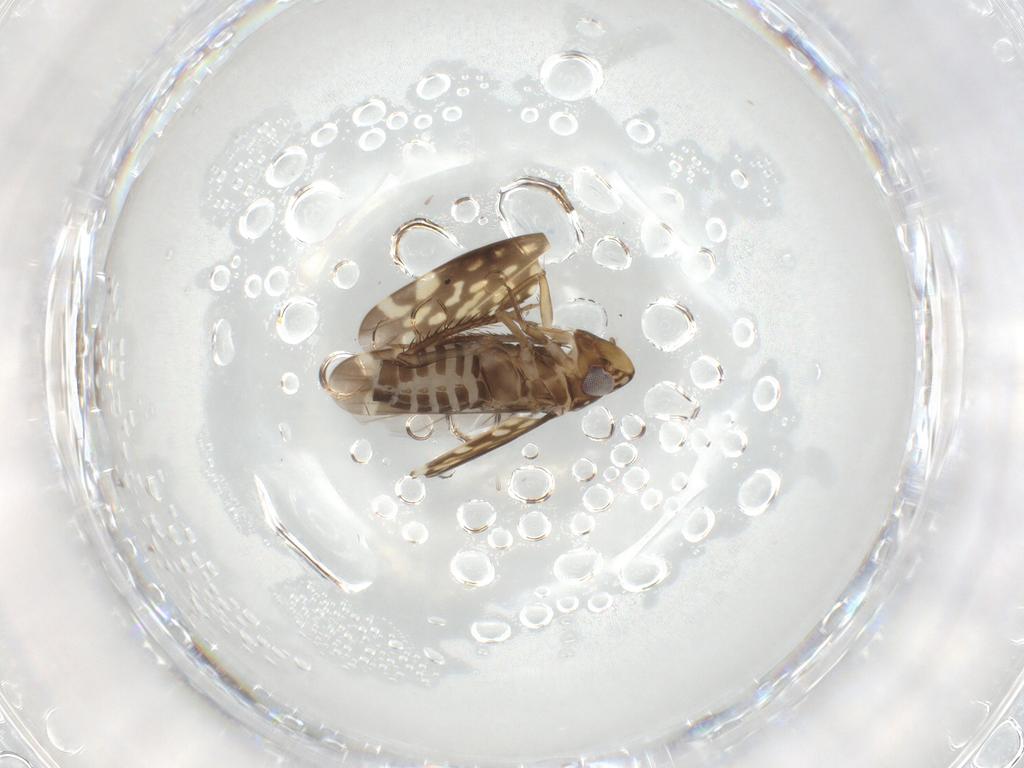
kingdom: Animalia
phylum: Arthropoda
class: Insecta
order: Hemiptera
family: Cicadellidae
